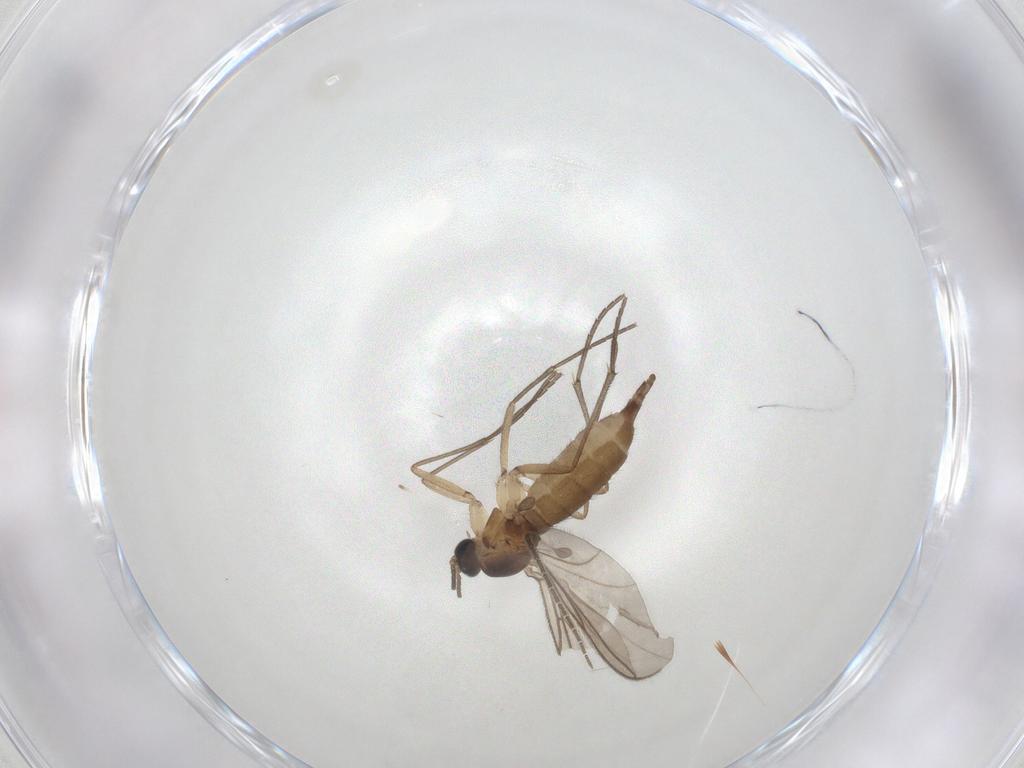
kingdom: Animalia
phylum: Arthropoda
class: Insecta
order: Diptera
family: Sciaridae
